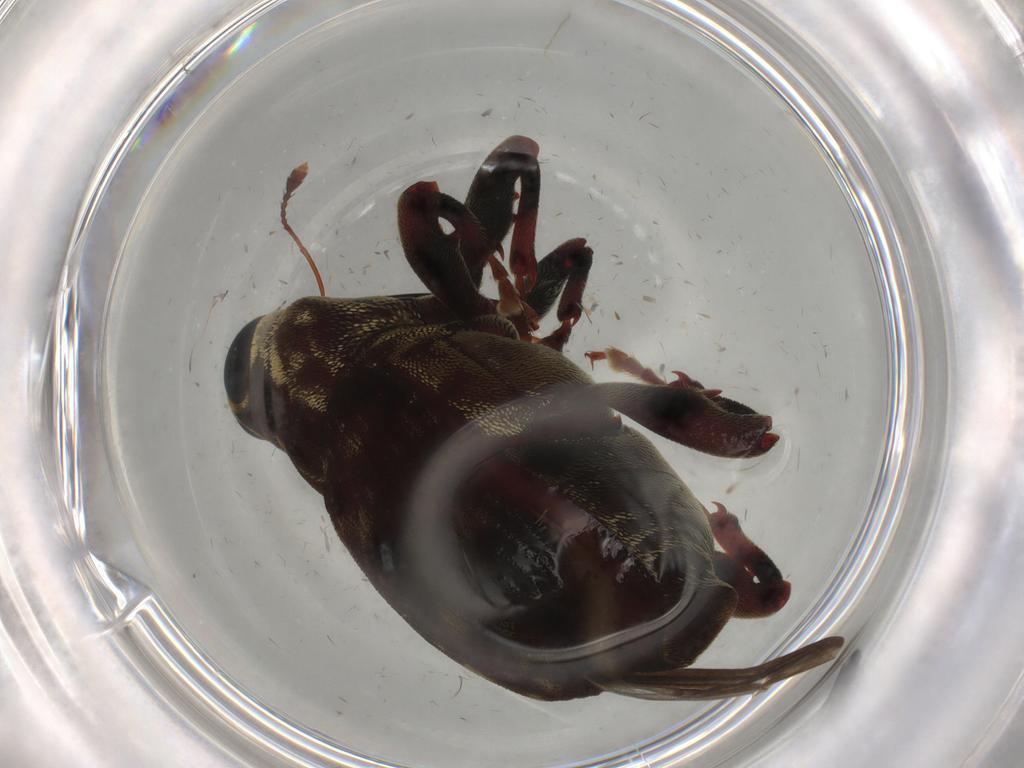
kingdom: Animalia
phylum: Arthropoda
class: Insecta
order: Coleoptera
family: Curculionidae
